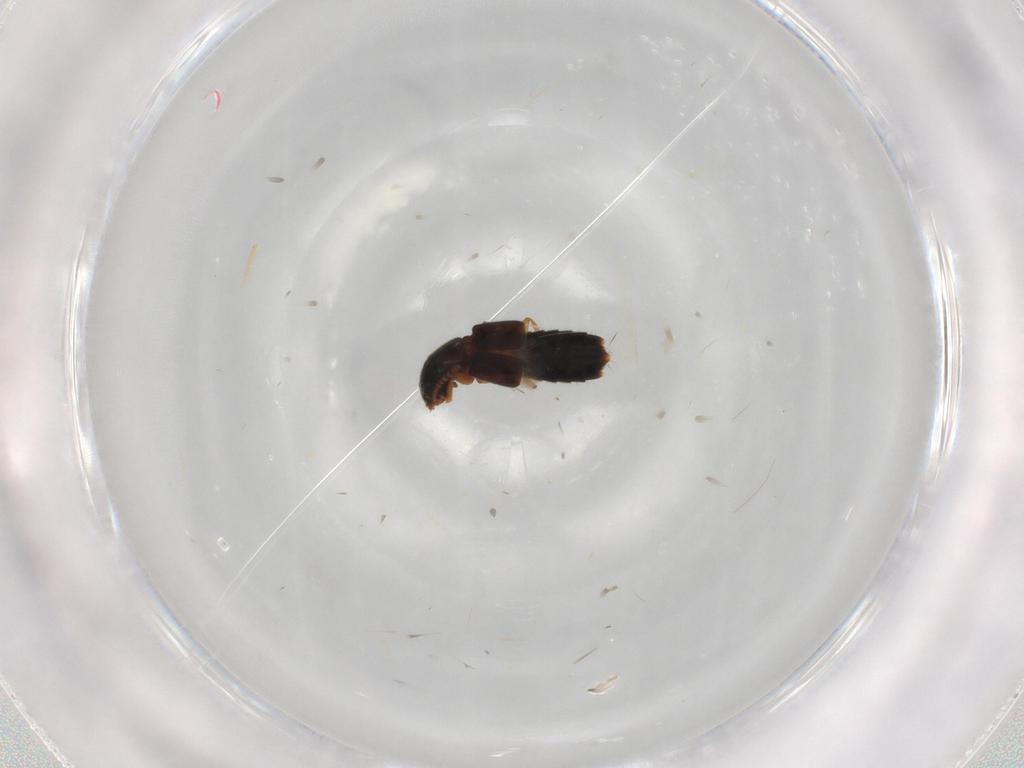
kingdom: Animalia
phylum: Arthropoda
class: Insecta
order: Coleoptera
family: Staphylinidae
